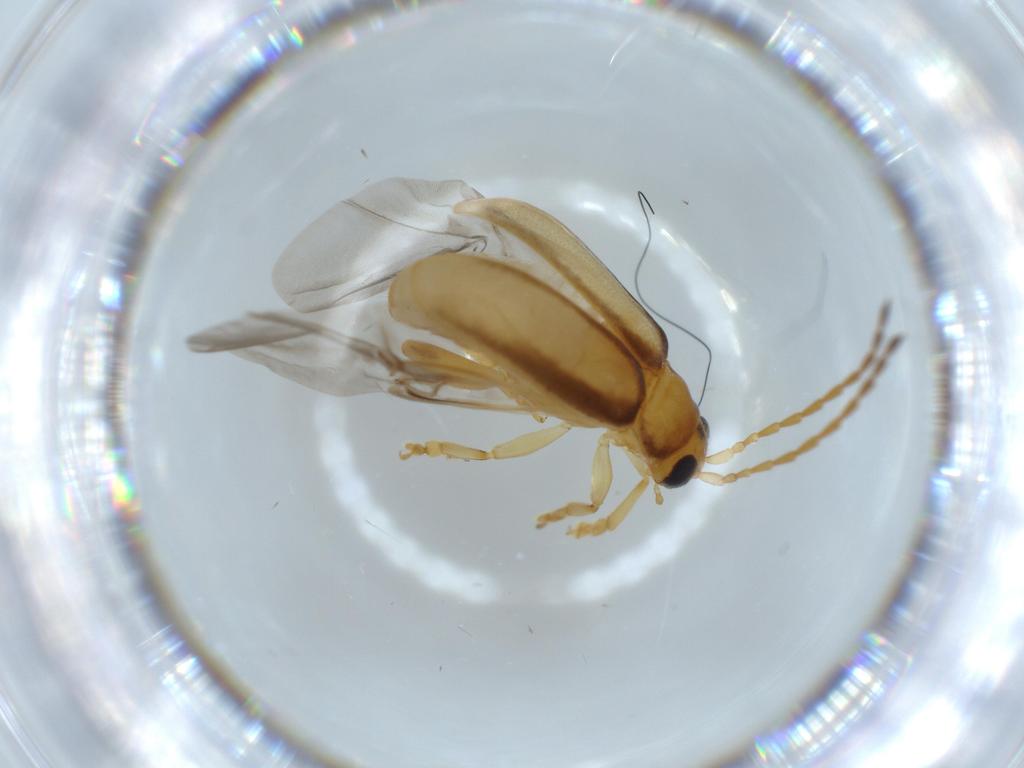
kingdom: Animalia
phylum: Arthropoda
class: Insecta
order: Coleoptera
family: Chrysomelidae
